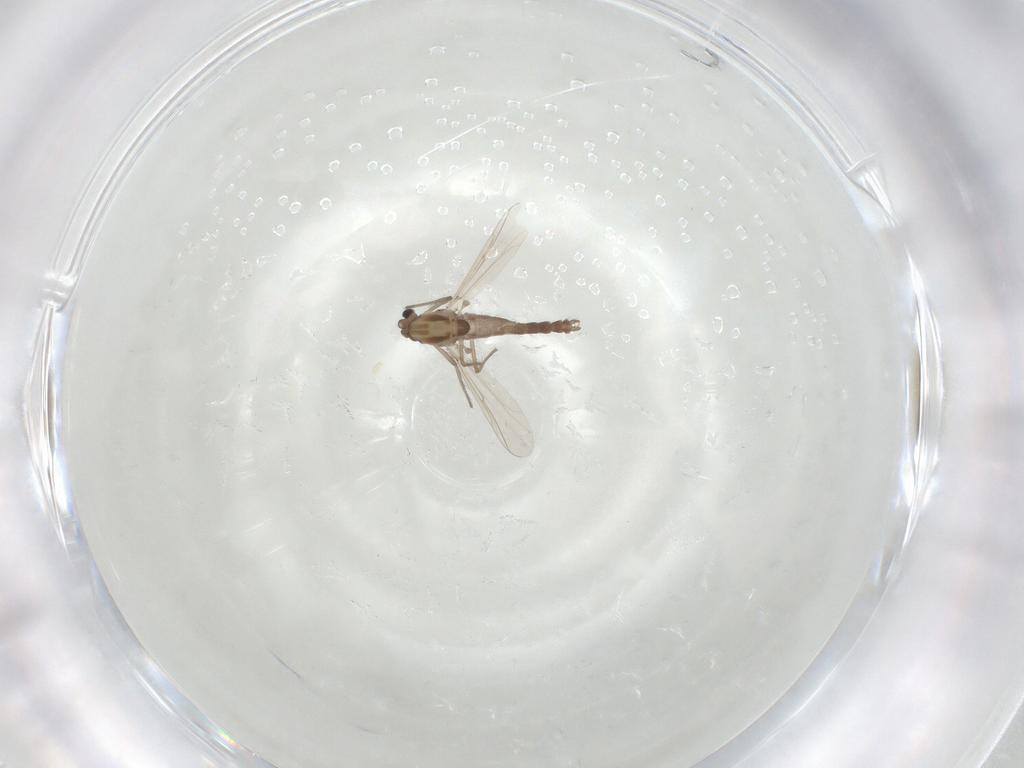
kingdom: Animalia
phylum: Arthropoda
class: Insecta
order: Diptera
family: Chironomidae
